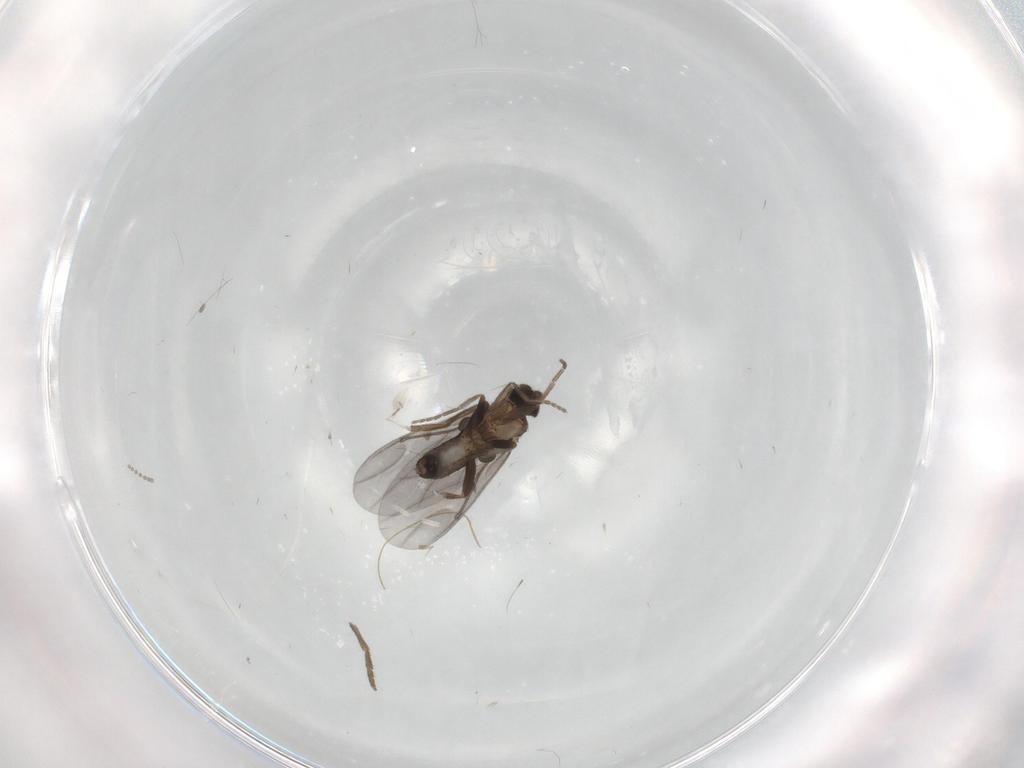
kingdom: Animalia
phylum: Arthropoda
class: Insecta
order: Diptera
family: Phoridae
